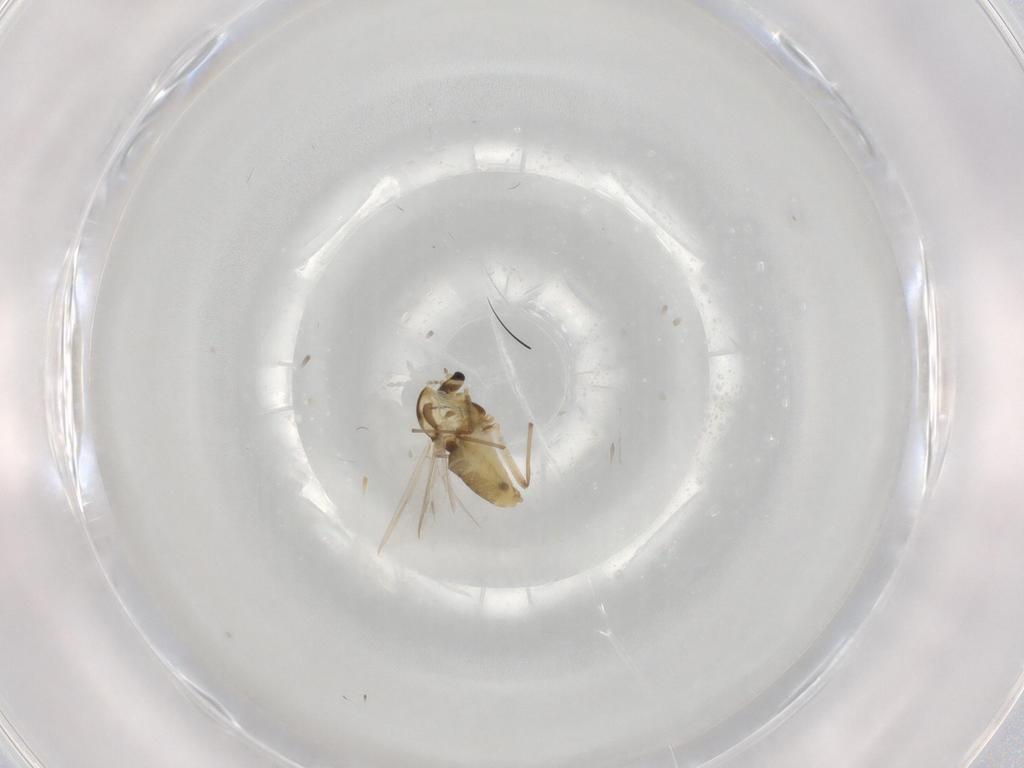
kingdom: Animalia
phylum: Arthropoda
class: Insecta
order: Diptera
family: Chironomidae
